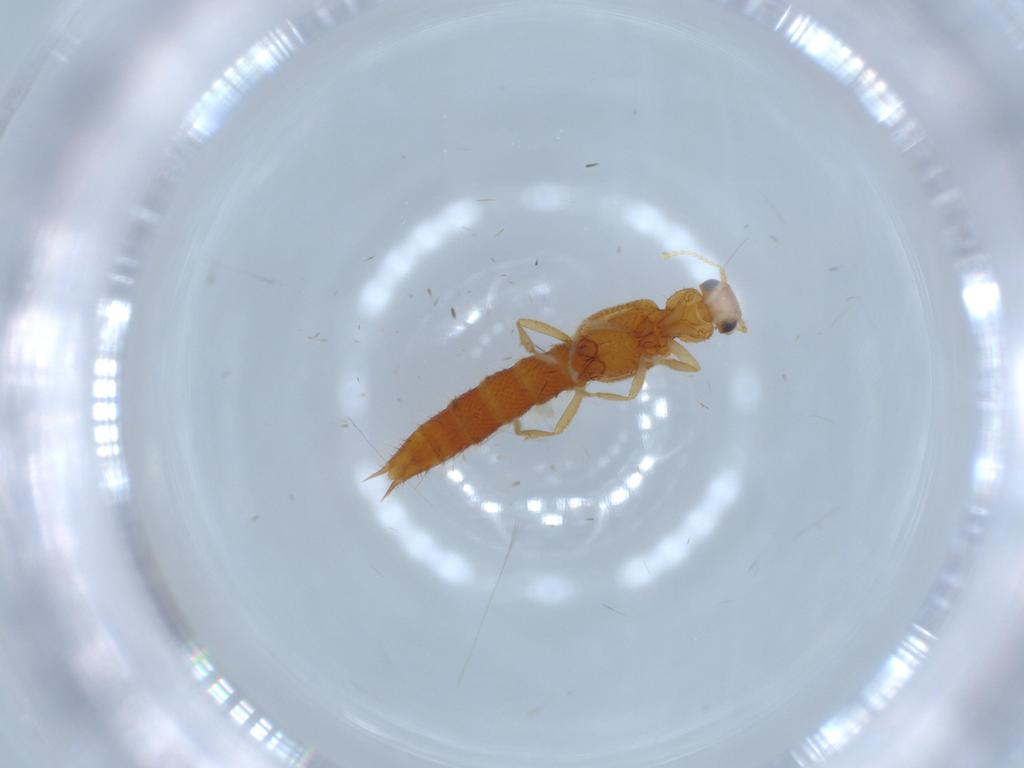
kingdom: Animalia
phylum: Arthropoda
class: Insecta
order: Coleoptera
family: Staphylinidae
